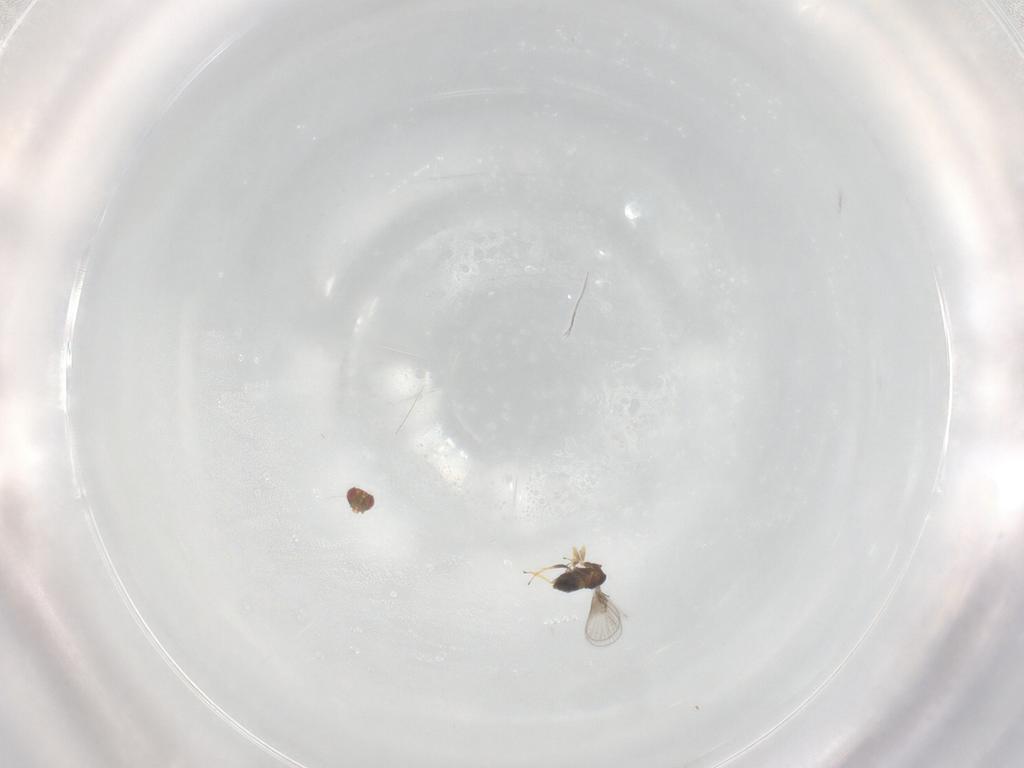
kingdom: Animalia
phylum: Arthropoda
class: Insecta
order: Hymenoptera
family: Trichogrammatidae
